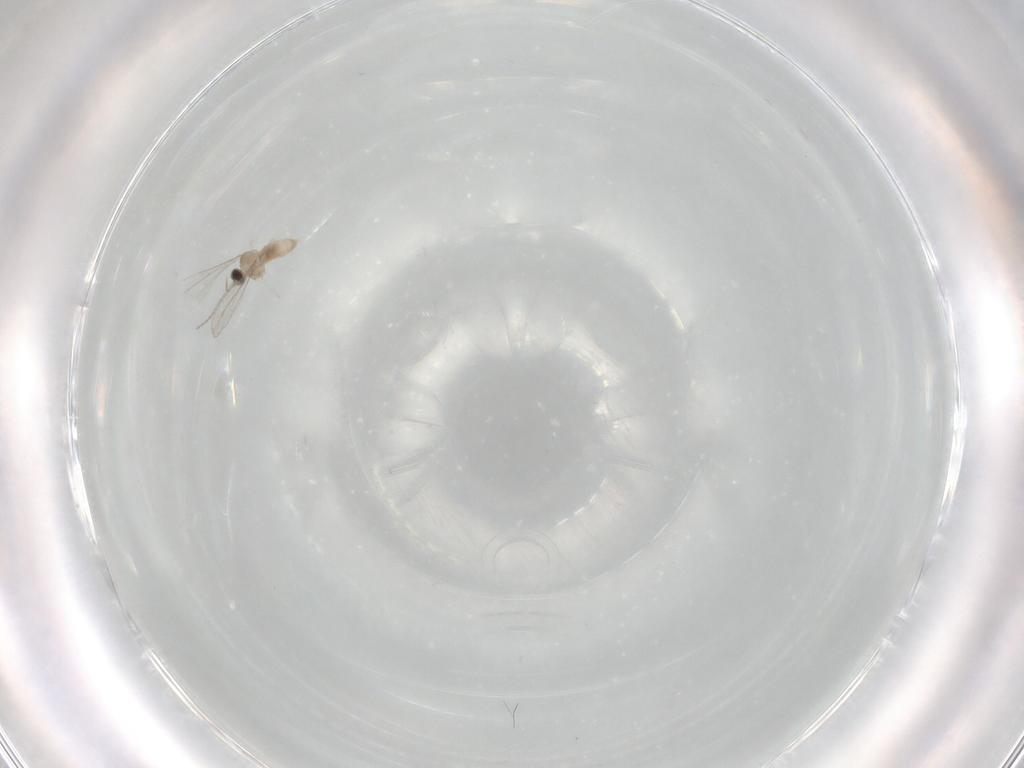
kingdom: Animalia
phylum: Arthropoda
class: Insecta
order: Diptera
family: Cecidomyiidae
